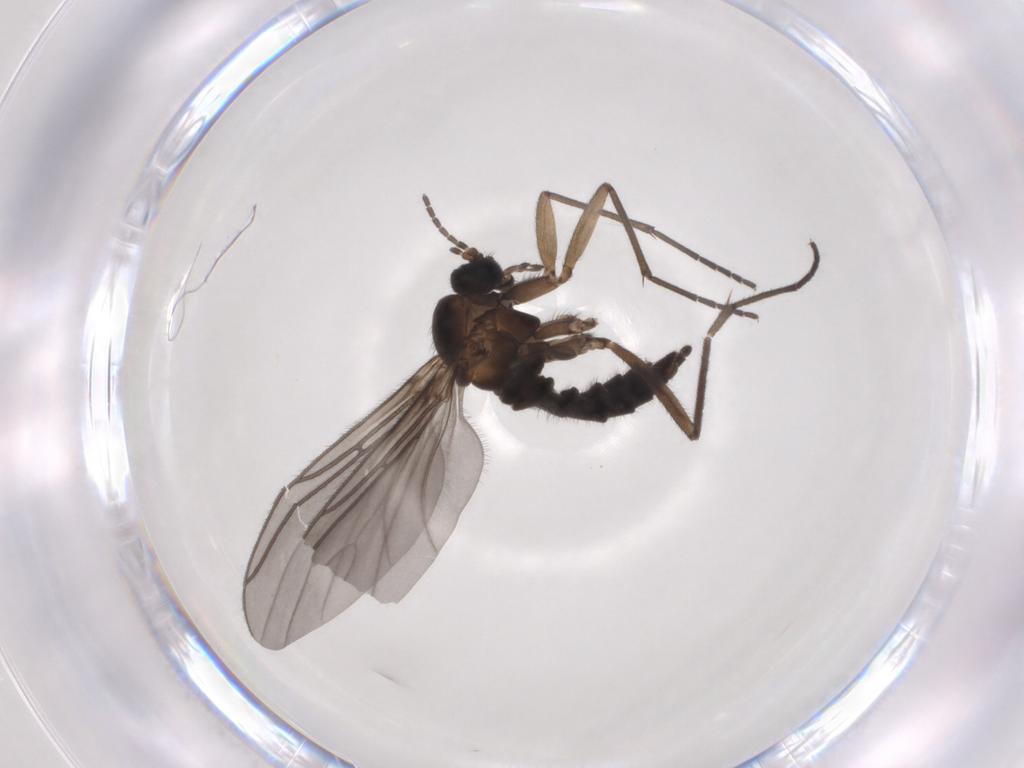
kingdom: Animalia
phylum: Arthropoda
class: Insecta
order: Diptera
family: Sciaridae
